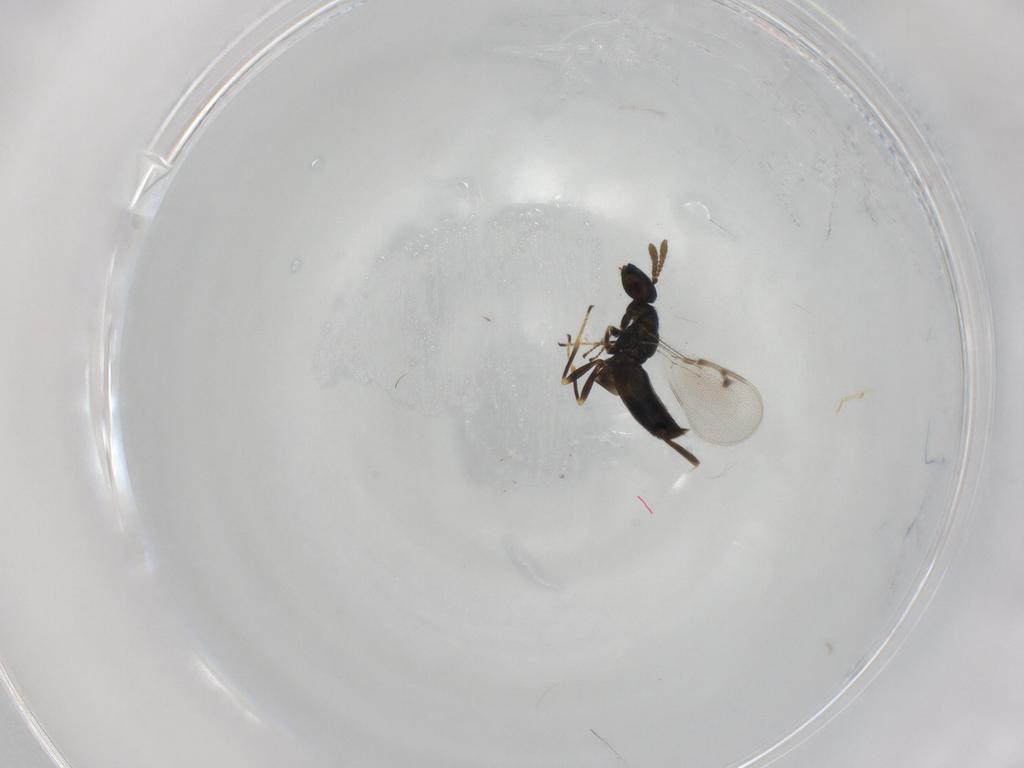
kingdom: Animalia
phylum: Arthropoda
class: Insecta
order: Hymenoptera
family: Pirenidae
